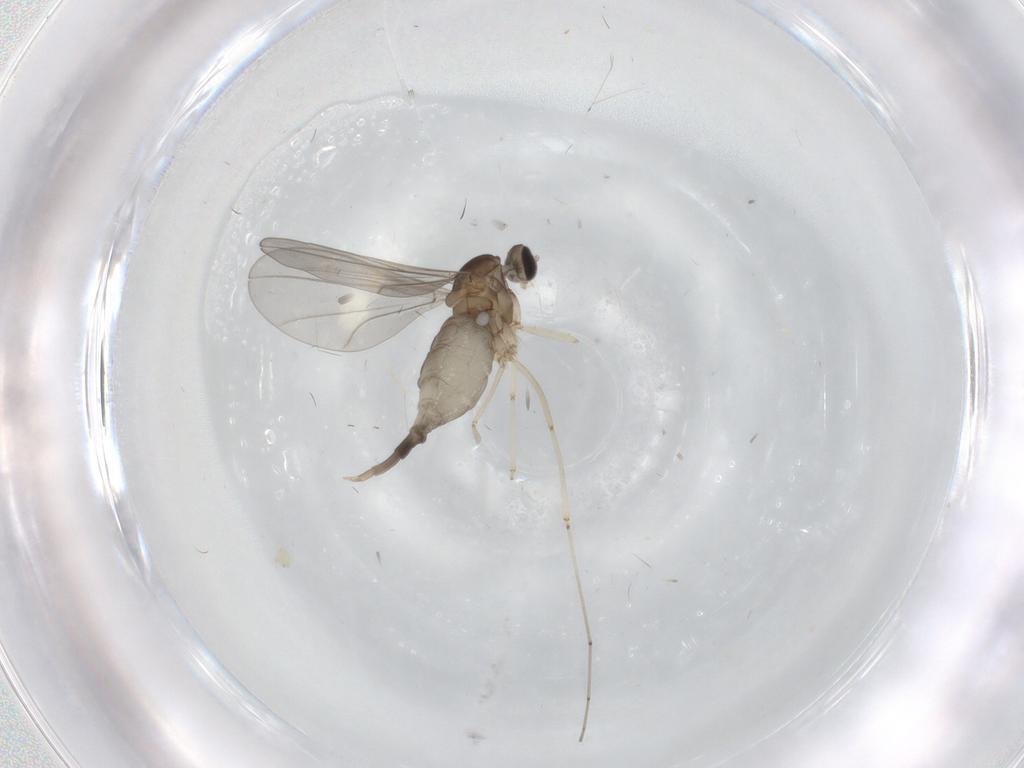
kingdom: Animalia
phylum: Arthropoda
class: Insecta
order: Diptera
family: Cecidomyiidae
